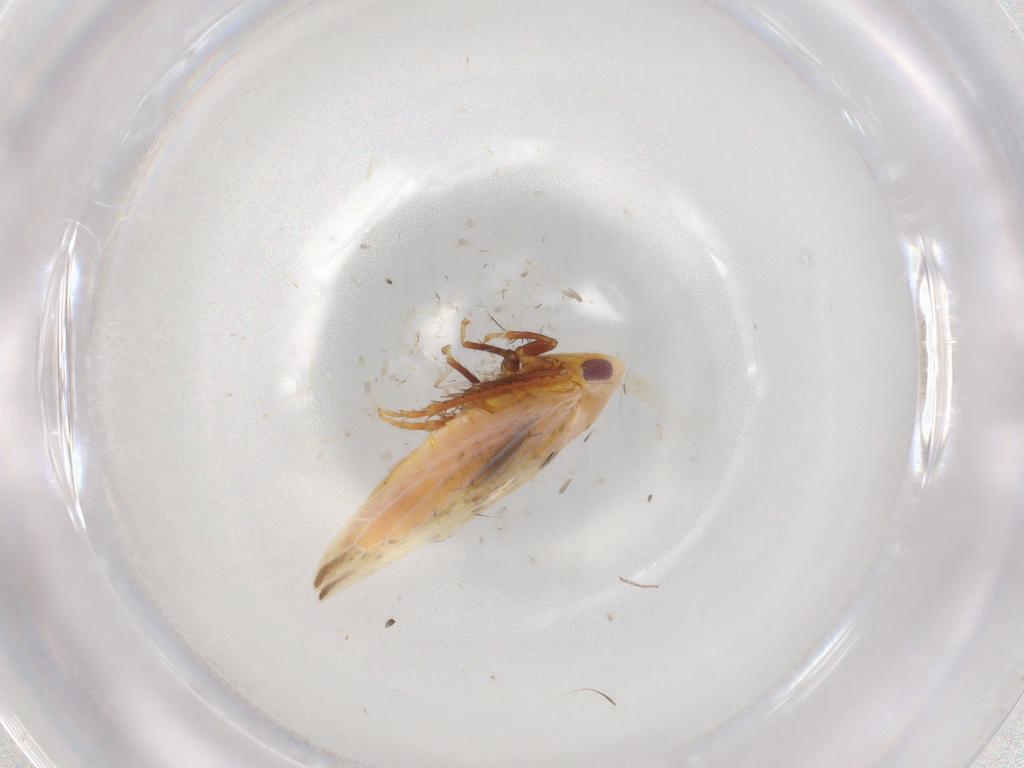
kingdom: Animalia
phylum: Arthropoda
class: Insecta
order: Hemiptera
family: Cicadellidae
